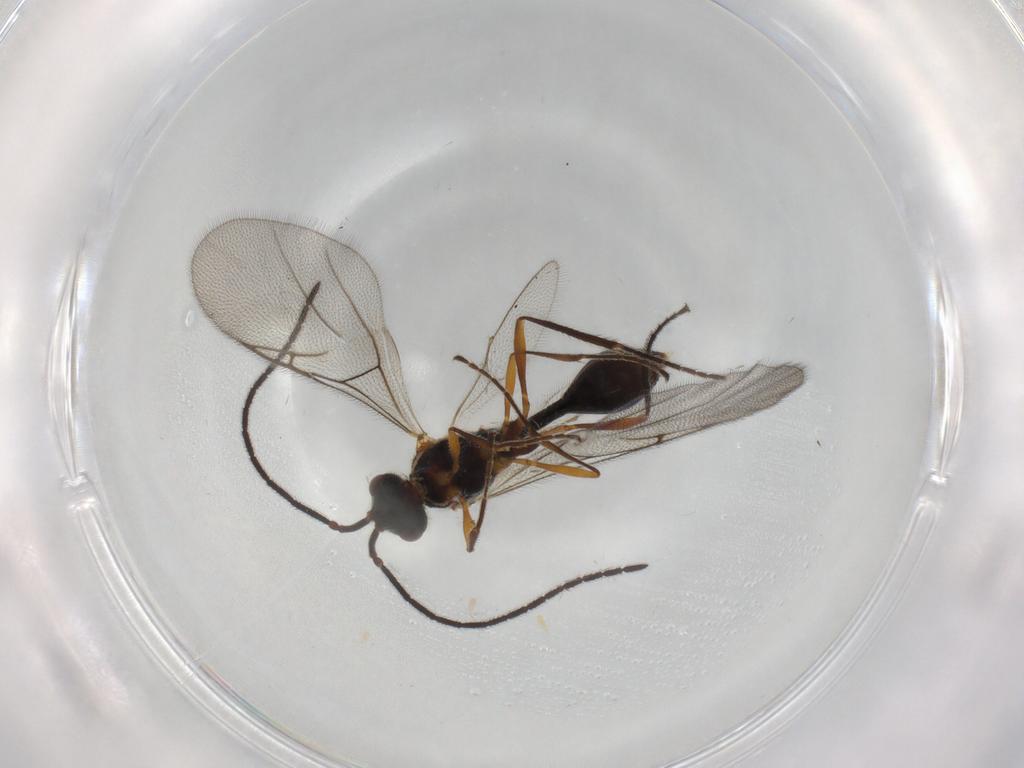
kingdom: Animalia
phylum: Arthropoda
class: Insecta
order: Hymenoptera
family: Diapriidae
